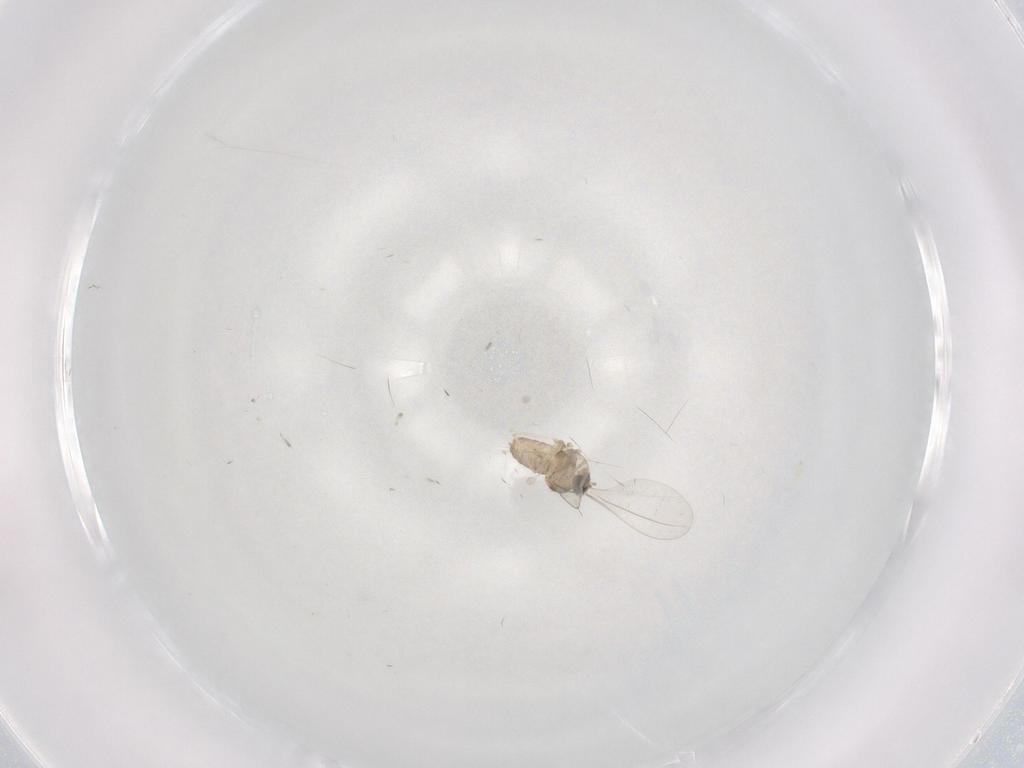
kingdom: Animalia
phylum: Arthropoda
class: Insecta
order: Diptera
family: Cecidomyiidae
